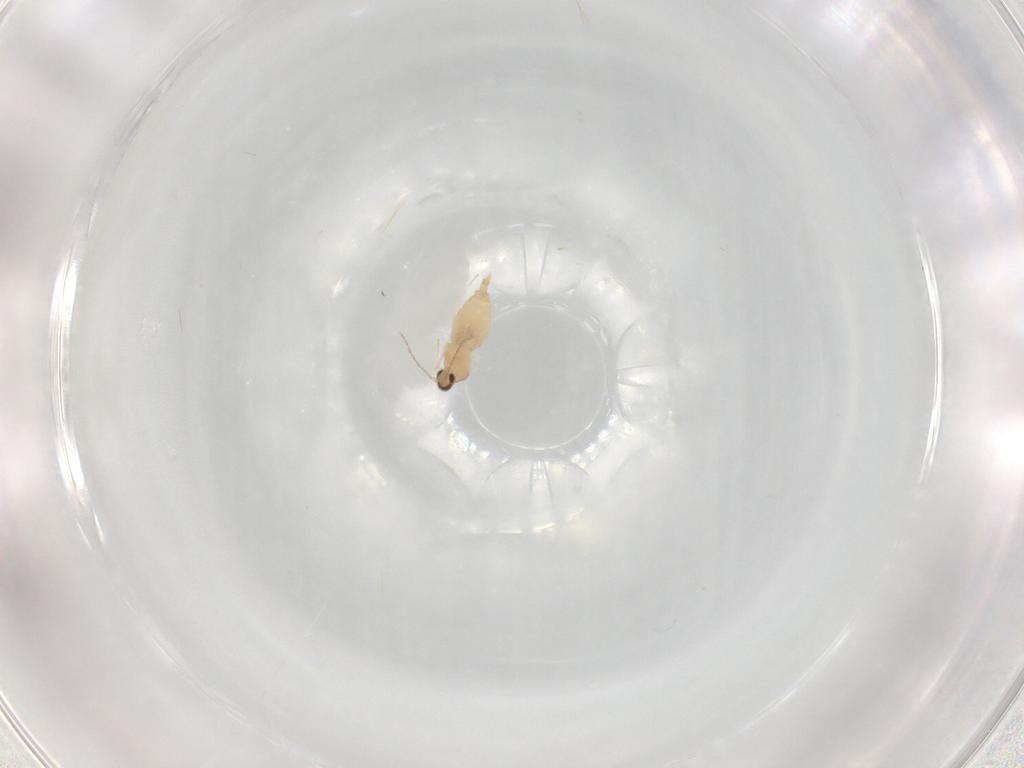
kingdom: Animalia
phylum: Arthropoda
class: Insecta
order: Diptera
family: Cecidomyiidae
